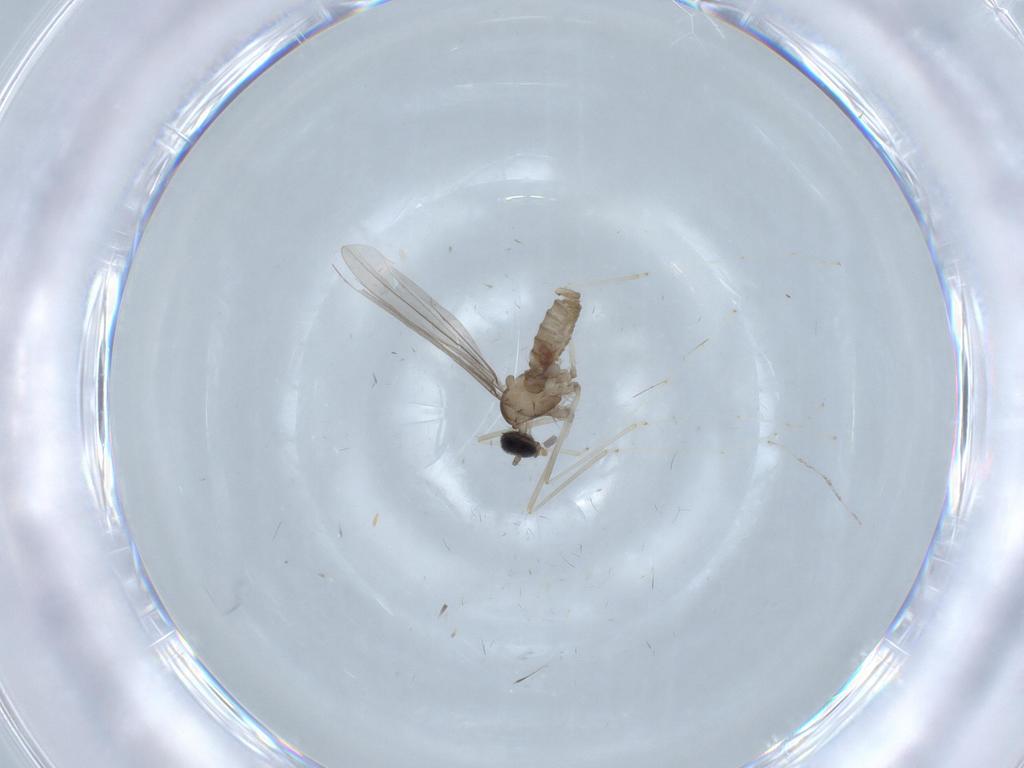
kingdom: Animalia
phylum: Arthropoda
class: Insecta
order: Diptera
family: Cecidomyiidae
